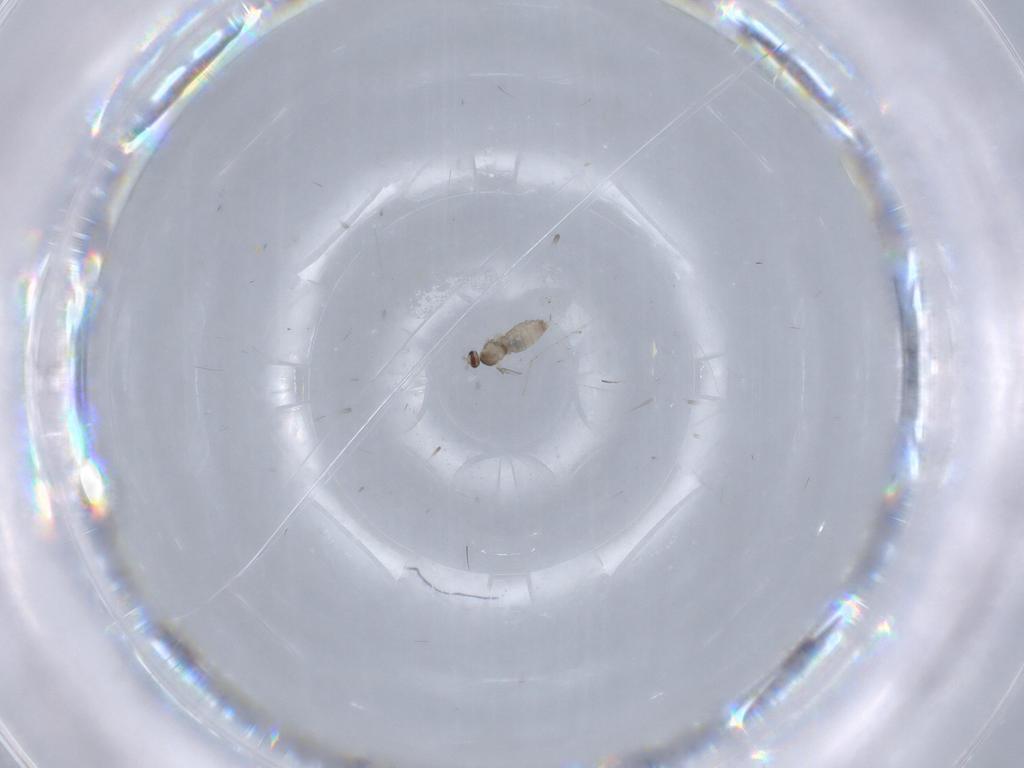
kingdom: Animalia
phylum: Arthropoda
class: Insecta
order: Diptera
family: Cecidomyiidae
